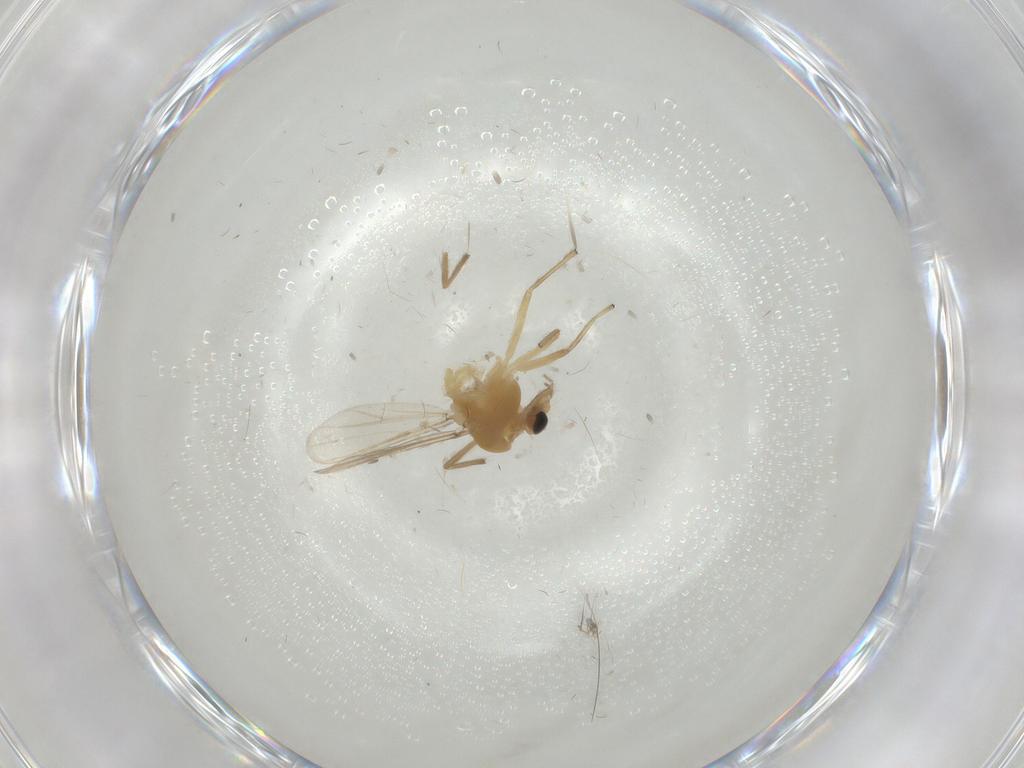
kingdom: Animalia
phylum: Arthropoda
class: Insecta
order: Diptera
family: Chironomidae
